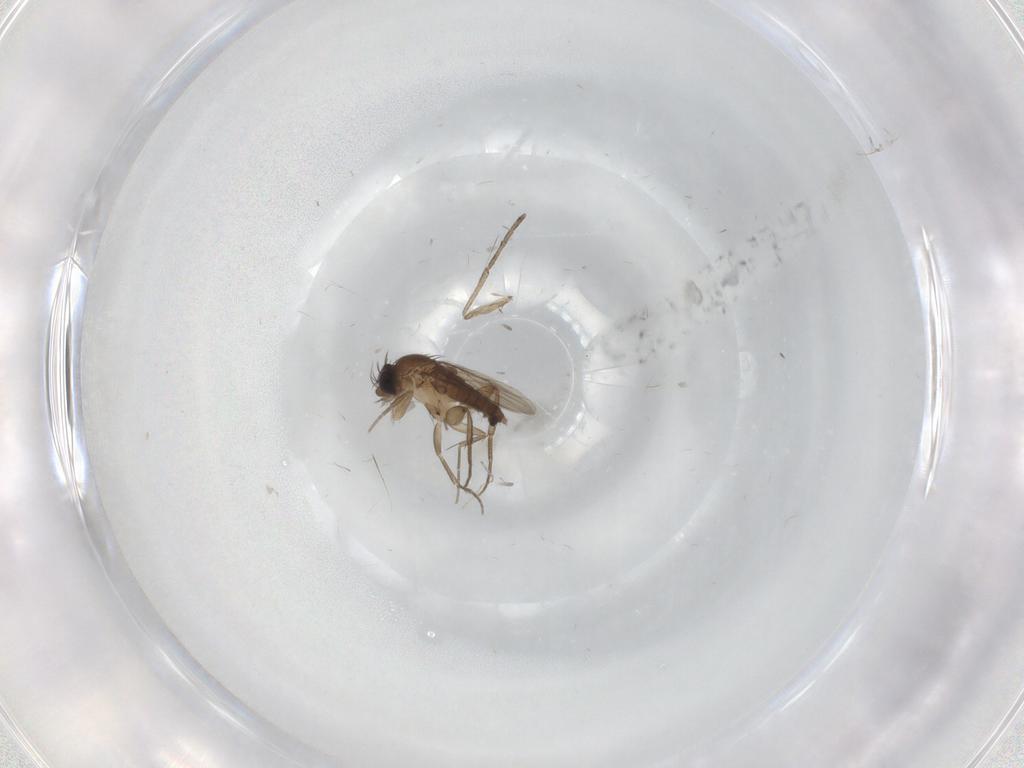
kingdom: Animalia
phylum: Arthropoda
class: Insecta
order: Diptera
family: Phoridae
